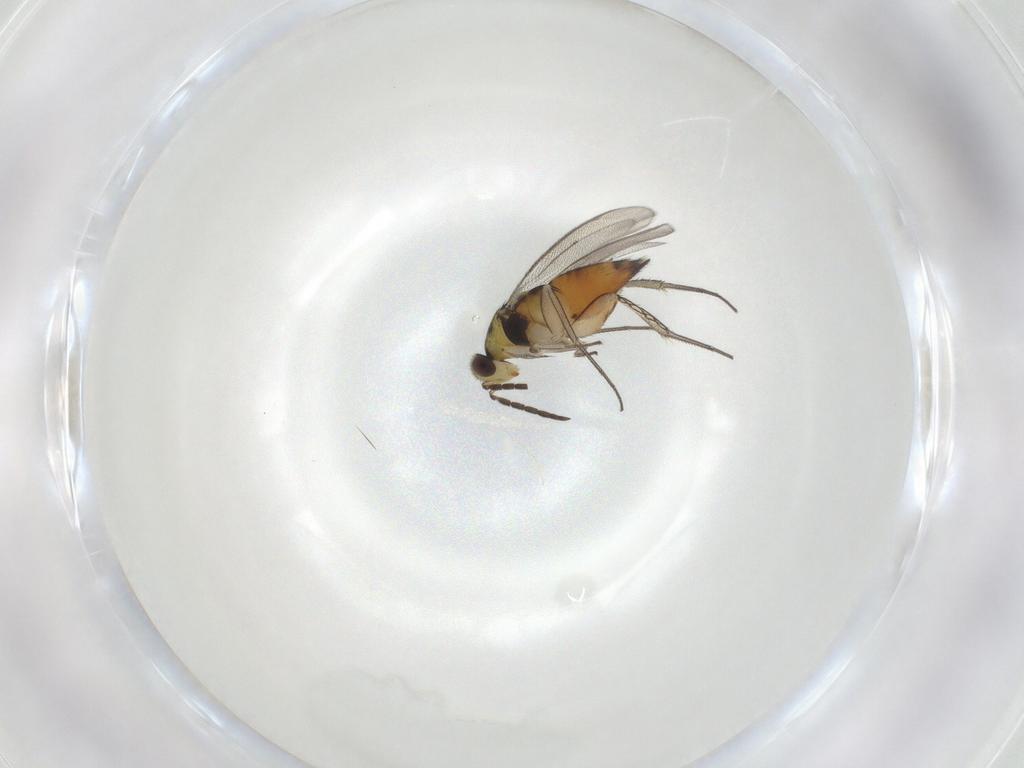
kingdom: Animalia
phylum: Arthropoda
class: Insecta
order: Hymenoptera
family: Eulophidae
